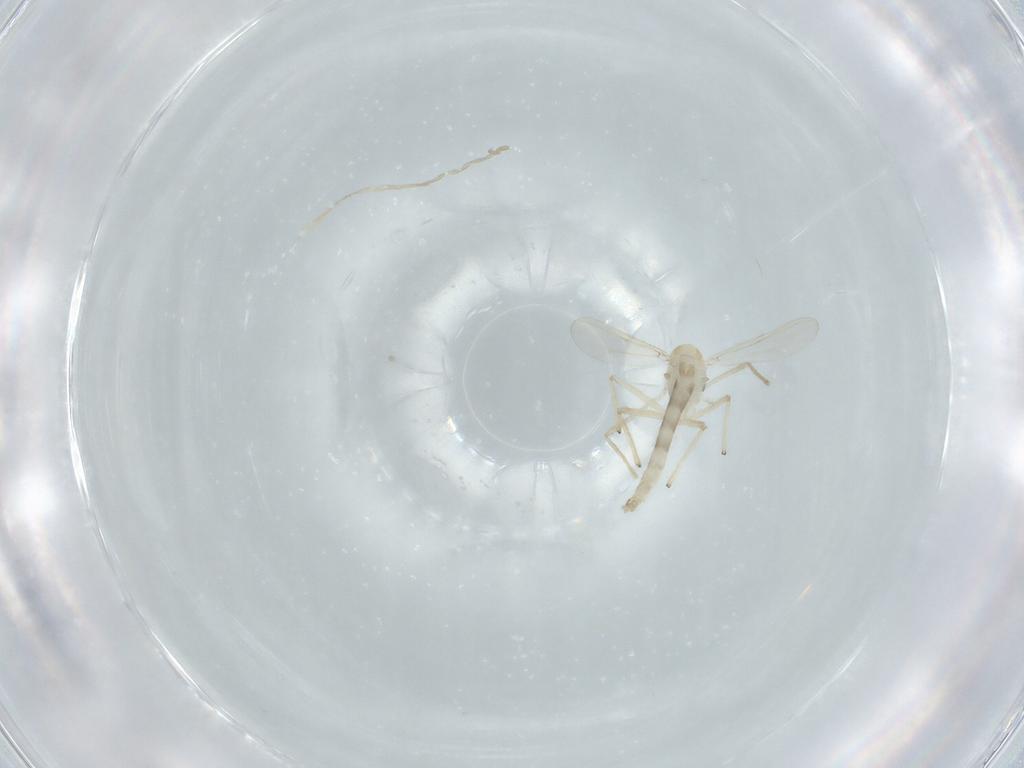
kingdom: Animalia
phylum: Arthropoda
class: Insecta
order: Diptera
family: Chironomidae
